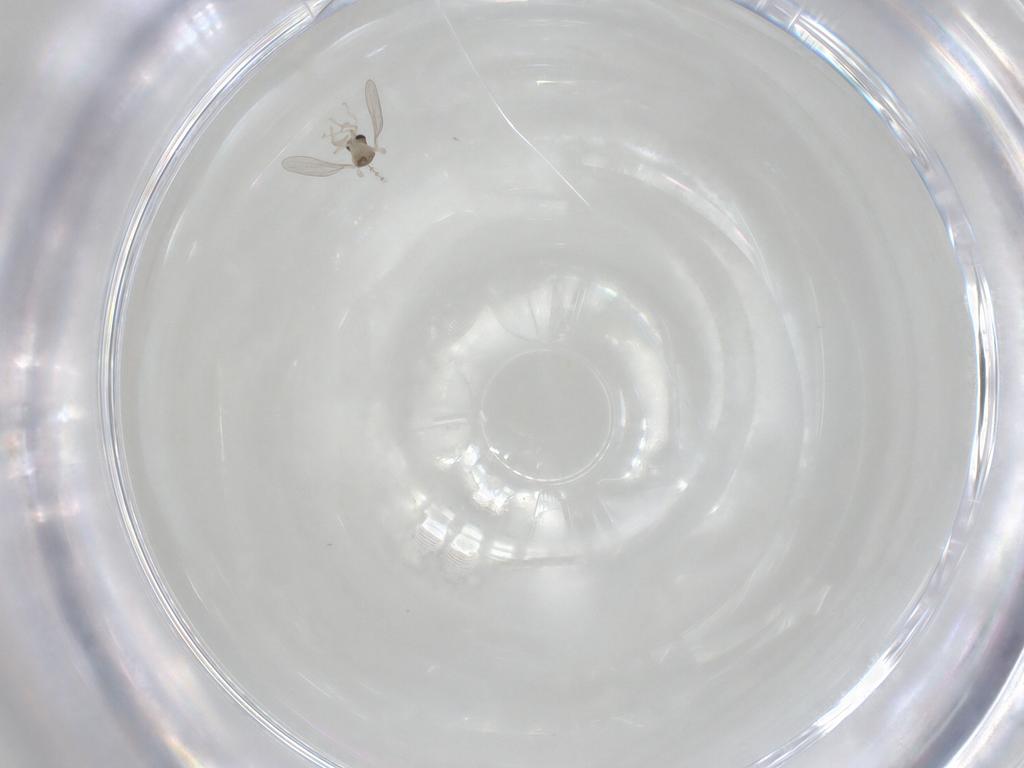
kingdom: Animalia
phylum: Arthropoda
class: Insecta
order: Diptera
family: Cecidomyiidae
